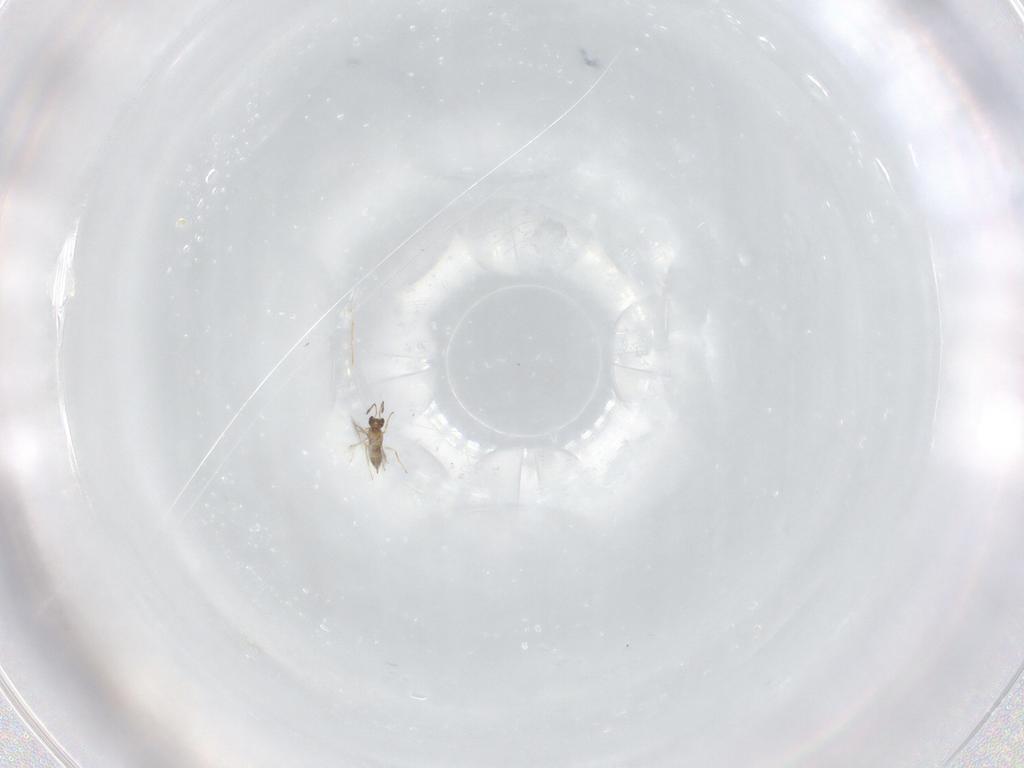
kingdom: Animalia
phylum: Arthropoda
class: Insecta
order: Hymenoptera
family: Mymaridae
